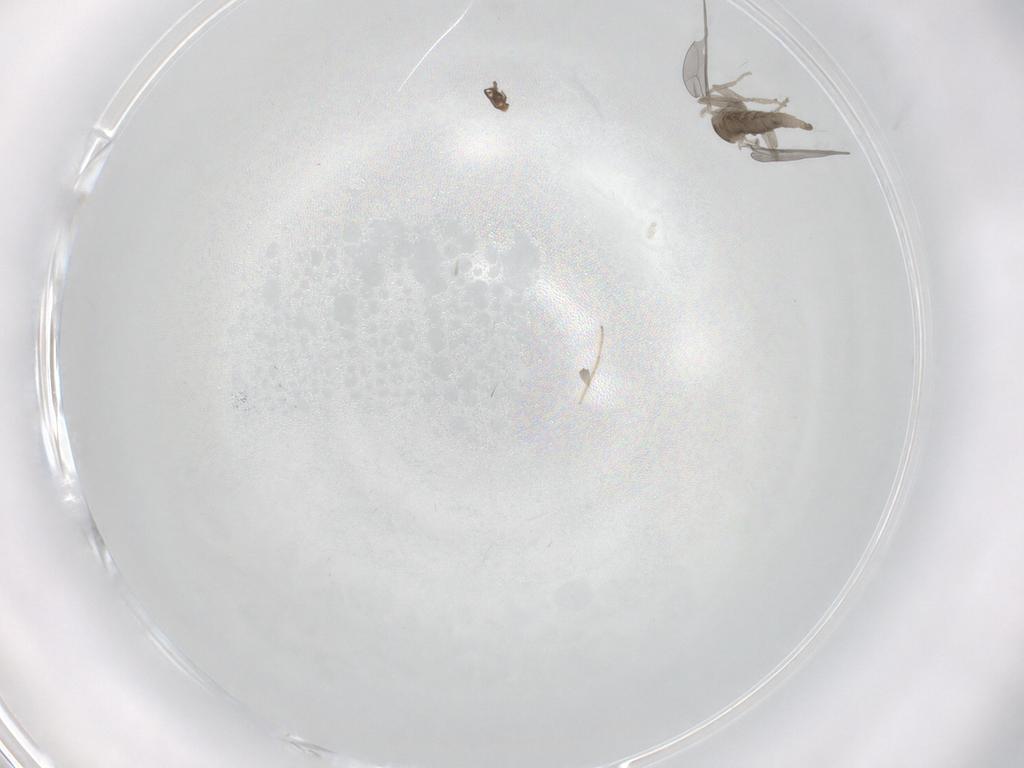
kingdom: Animalia
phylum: Arthropoda
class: Insecta
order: Diptera
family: Cecidomyiidae
